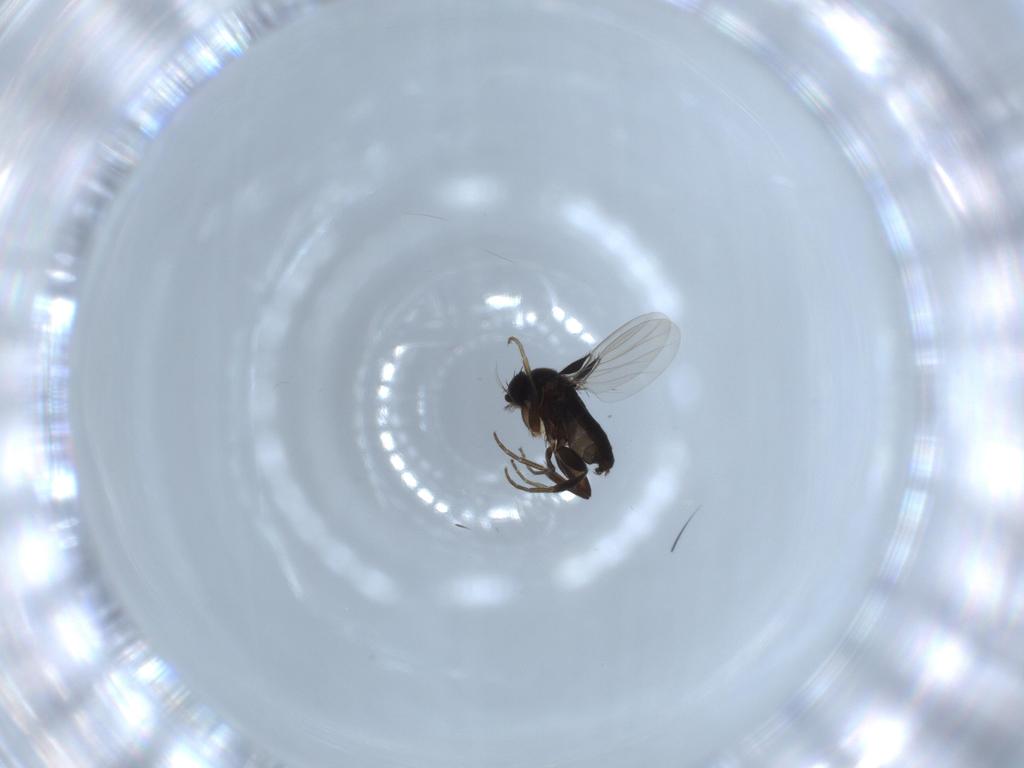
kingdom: Animalia
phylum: Arthropoda
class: Insecta
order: Diptera
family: Chironomidae
